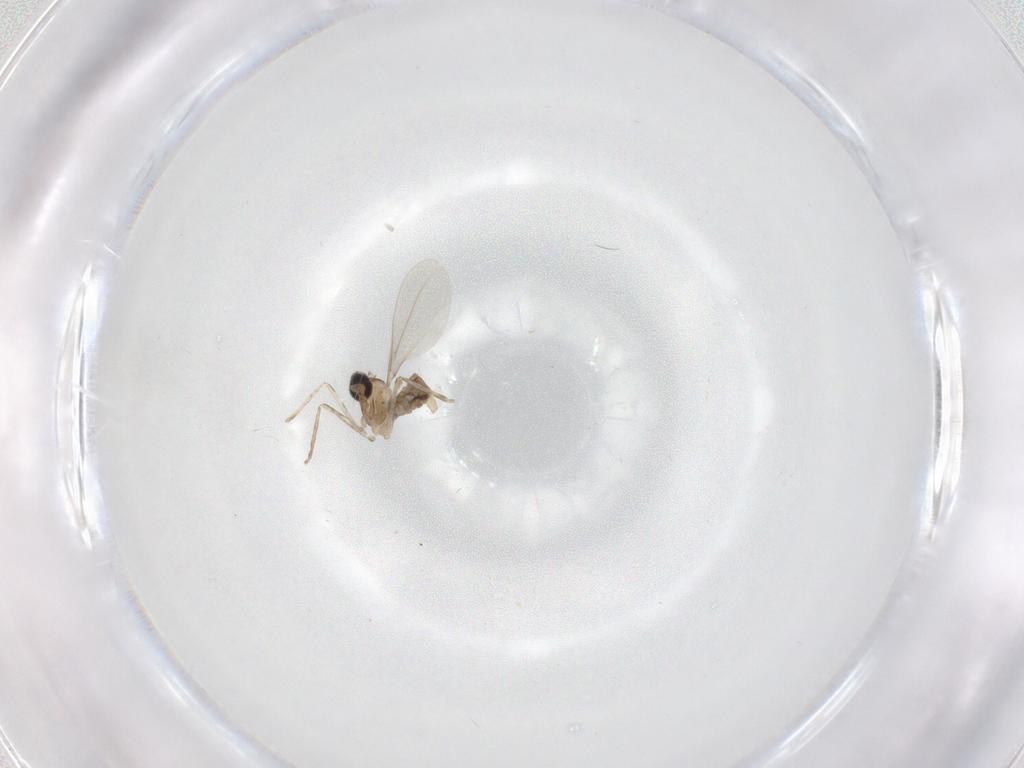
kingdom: Animalia
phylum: Arthropoda
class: Insecta
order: Diptera
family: Cecidomyiidae
